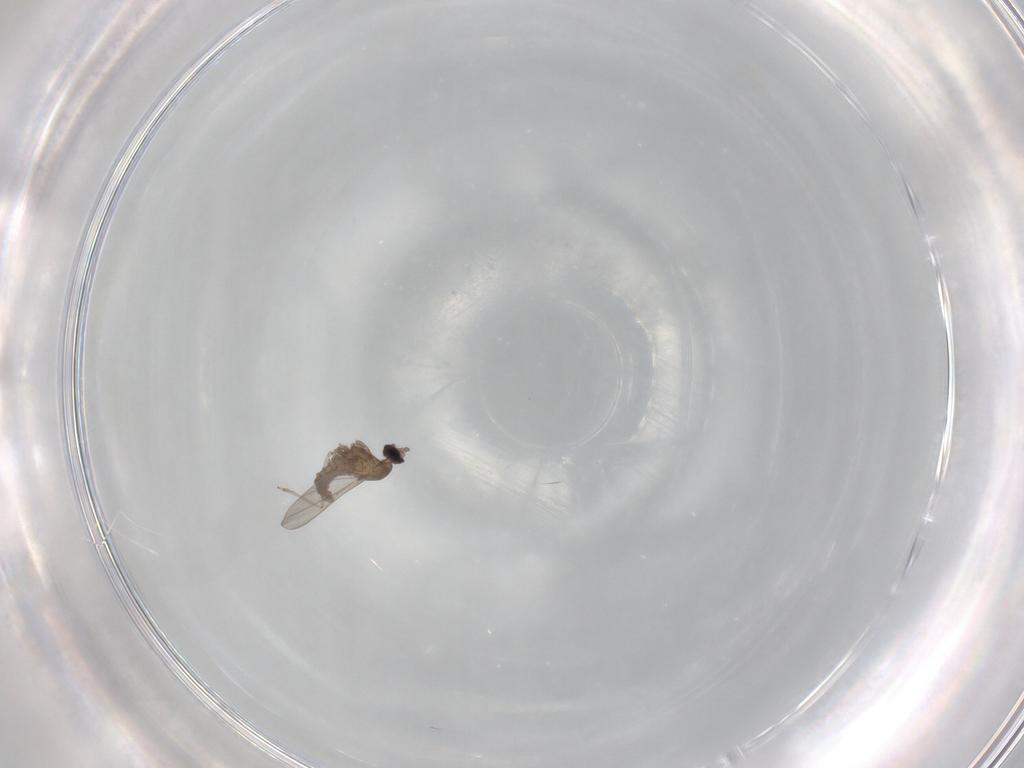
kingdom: Animalia
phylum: Arthropoda
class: Insecta
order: Diptera
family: Cecidomyiidae
